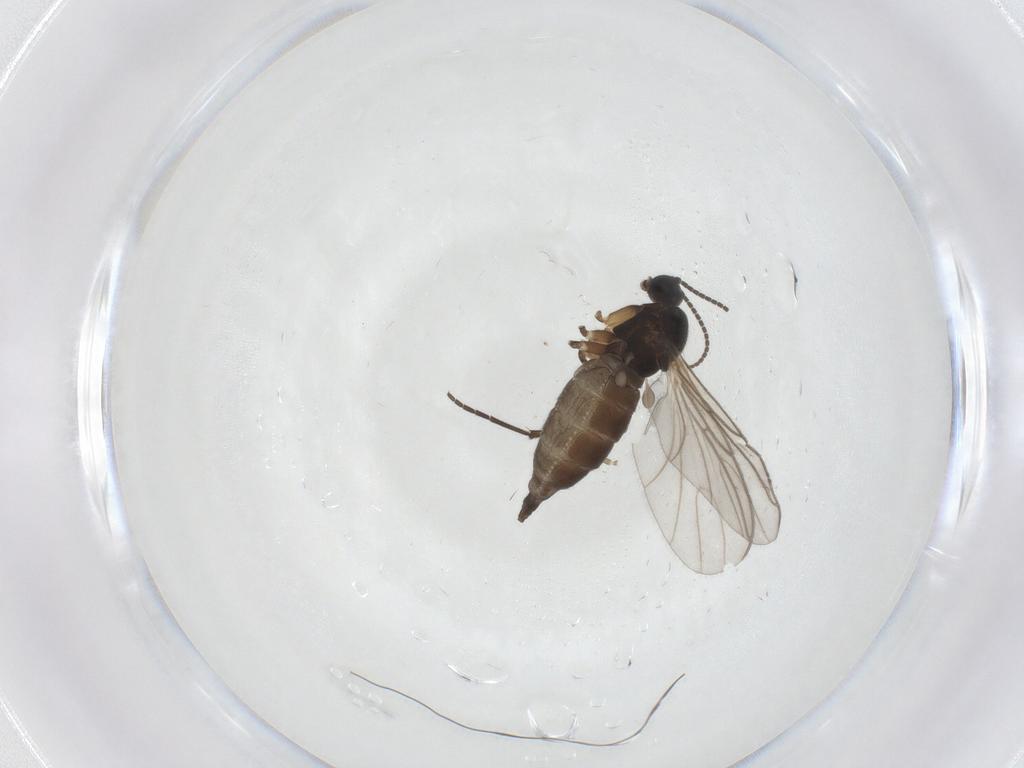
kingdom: Animalia
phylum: Arthropoda
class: Insecta
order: Diptera
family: Sciaridae
